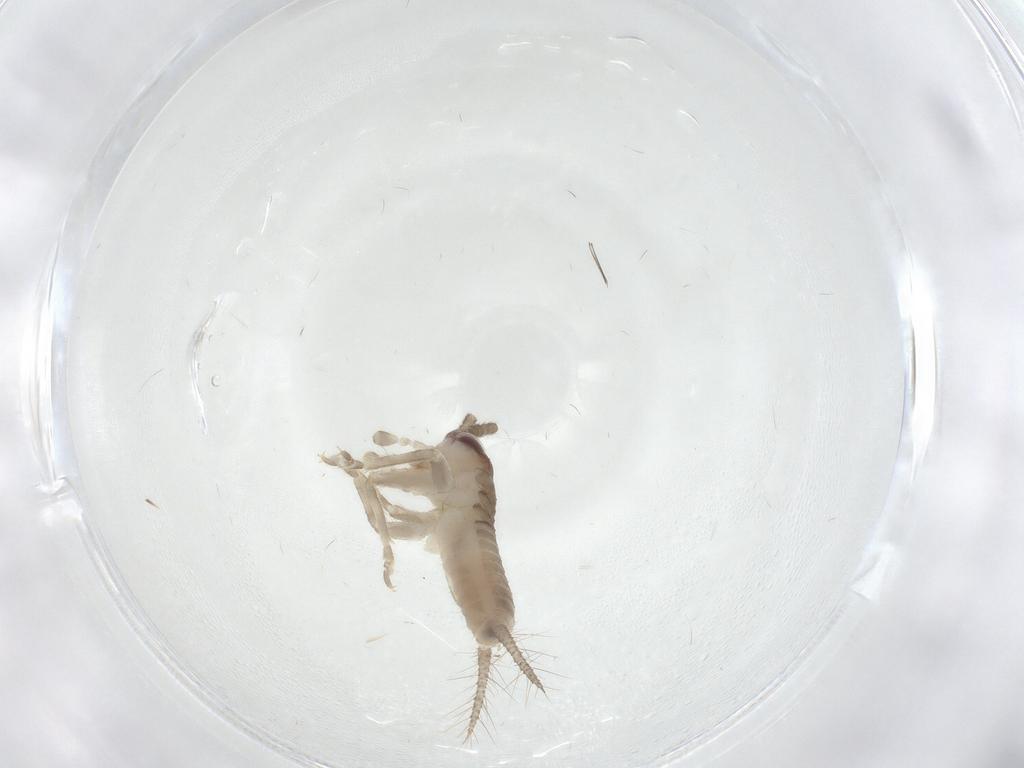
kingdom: Animalia
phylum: Arthropoda
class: Insecta
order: Orthoptera
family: Gryllidae
